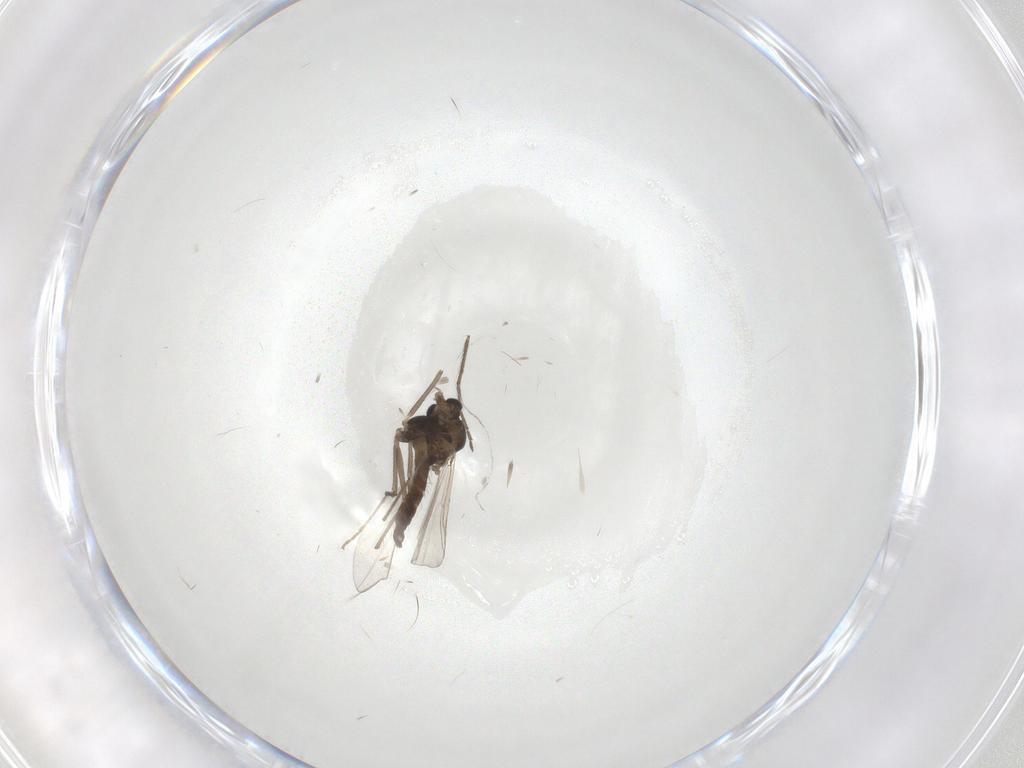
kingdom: Animalia
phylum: Arthropoda
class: Insecta
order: Diptera
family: Chironomidae
